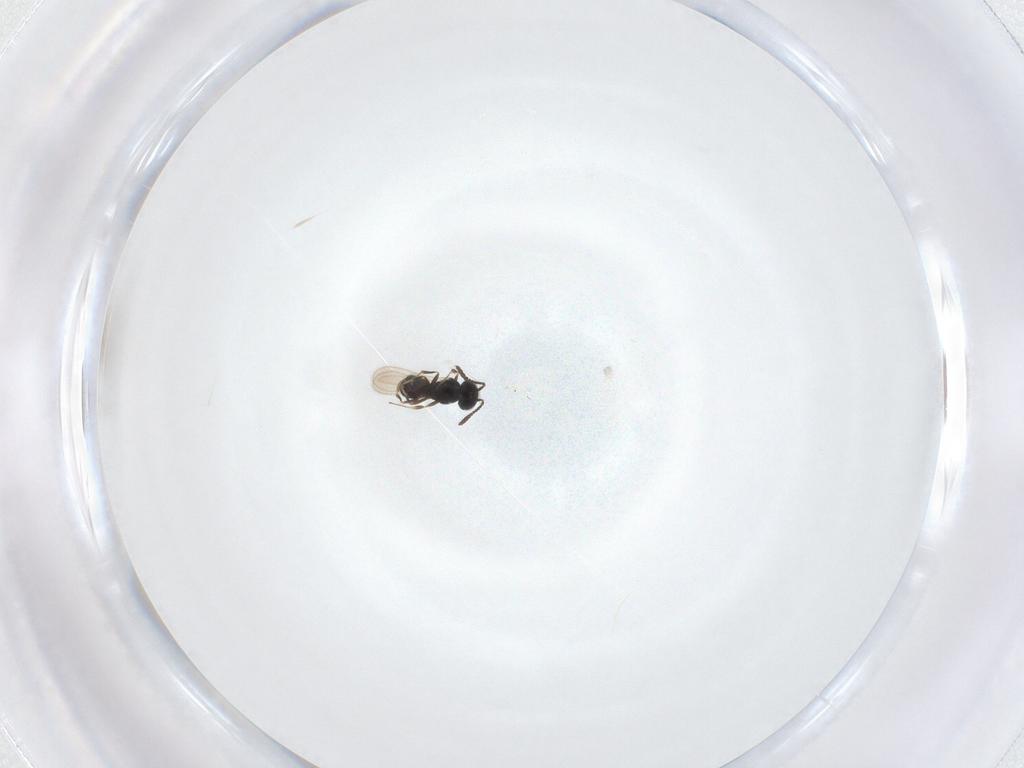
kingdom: Animalia
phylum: Arthropoda
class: Insecta
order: Hymenoptera
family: Scelionidae
